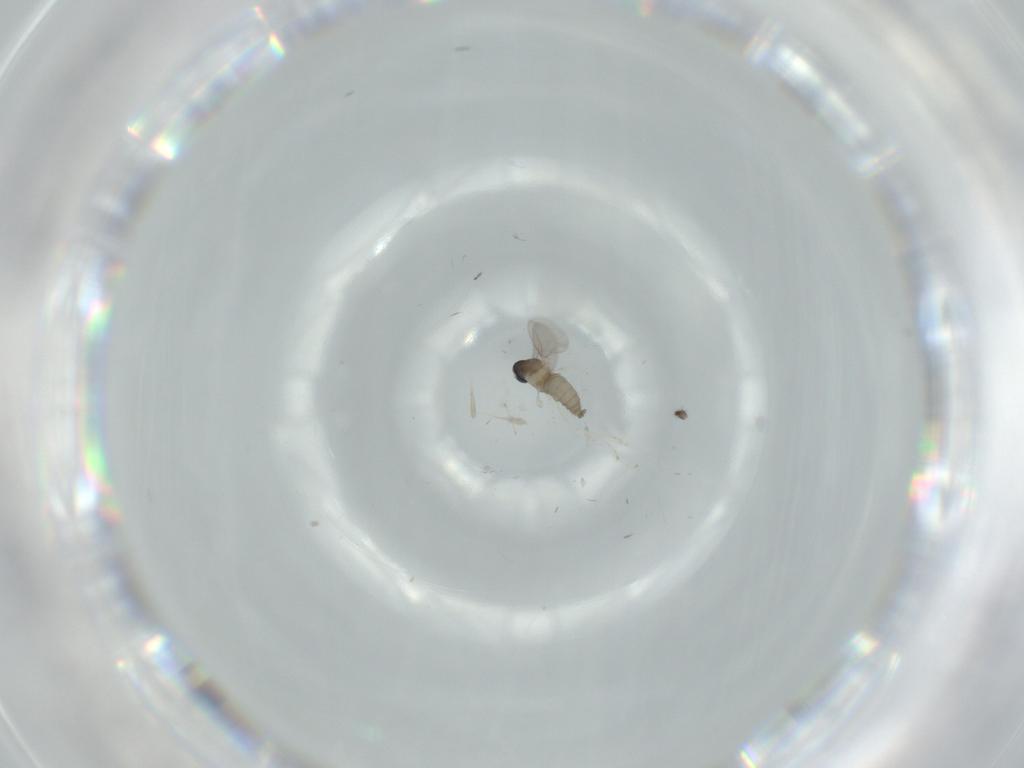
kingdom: Animalia
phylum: Arthropoda
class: Insecta
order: Diptera
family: Cecidomyiidae
